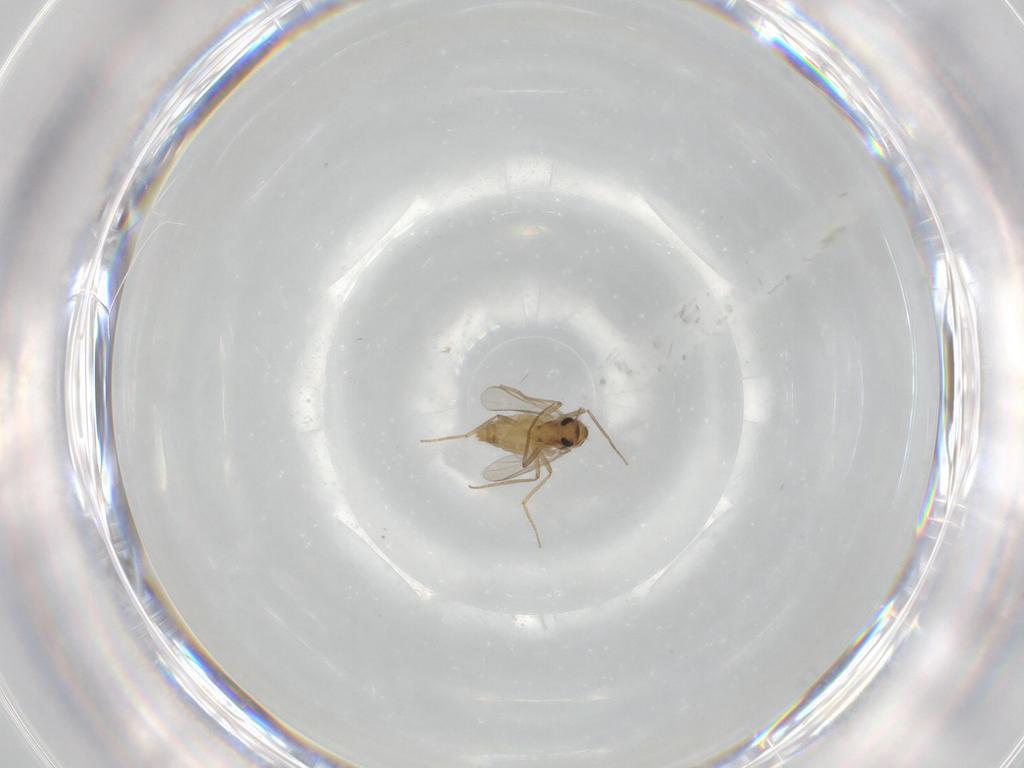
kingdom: Animalia
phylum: Arthropoda
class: Insecta
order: Diptera
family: Chironomidae
